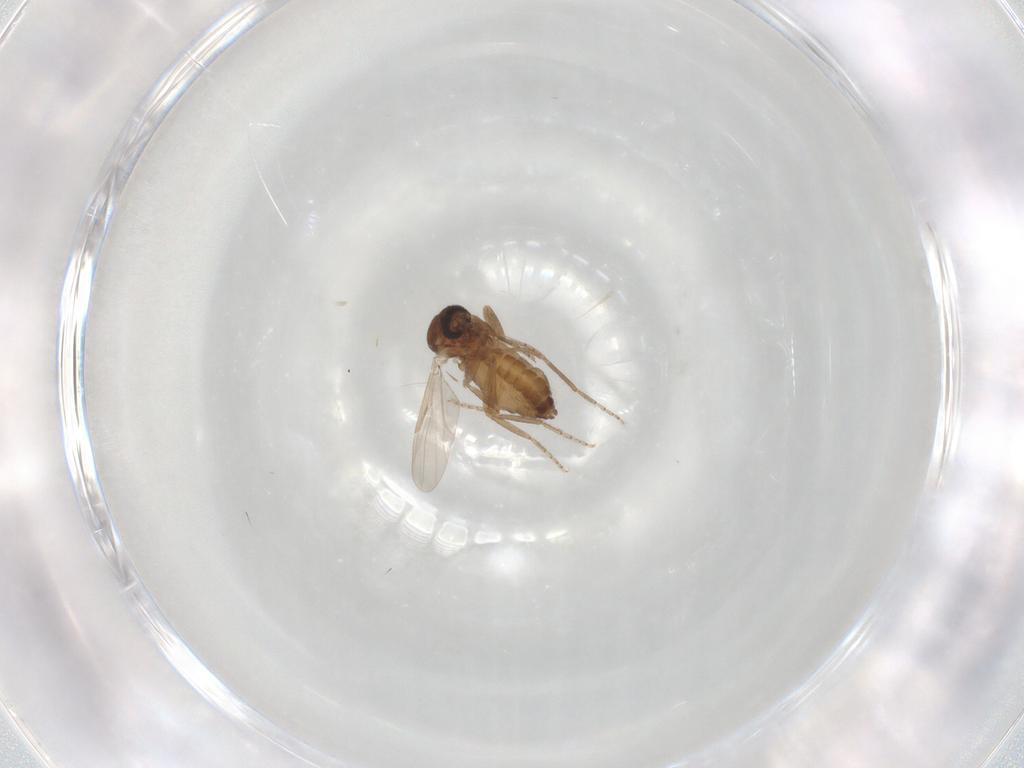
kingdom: Animalia
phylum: Arthropoda
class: Insecta
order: Diptera
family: Ceratopogonidae
